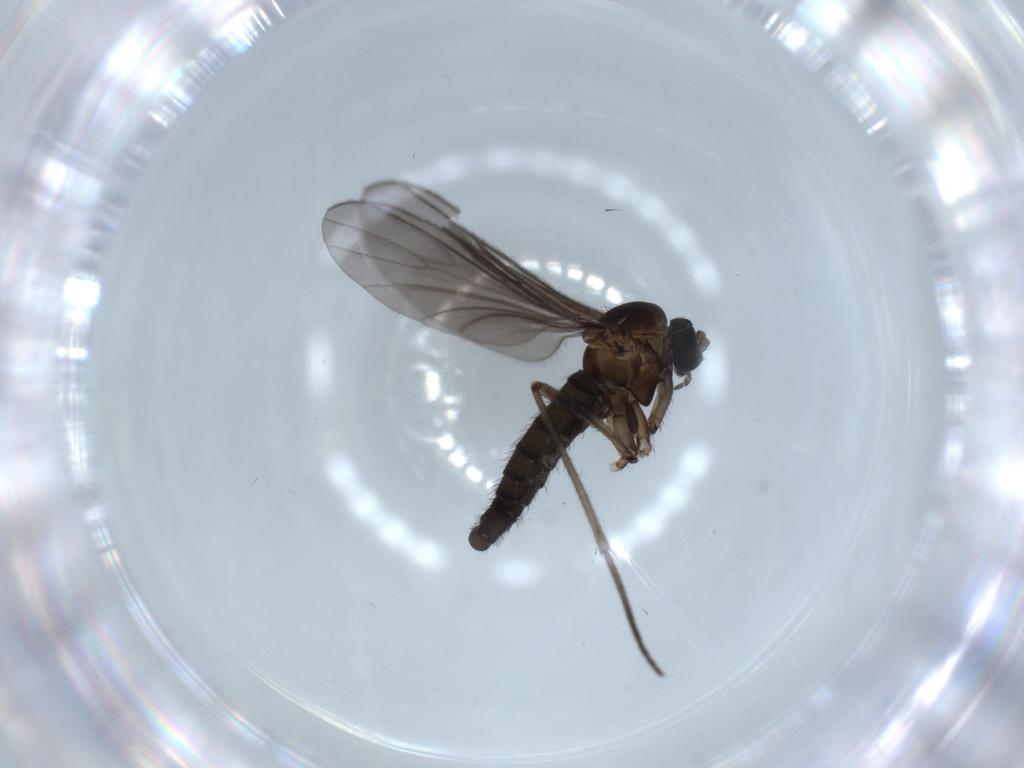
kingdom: Animalia
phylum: Arthropoda
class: Insecta
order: Diptera
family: Sciaridae
